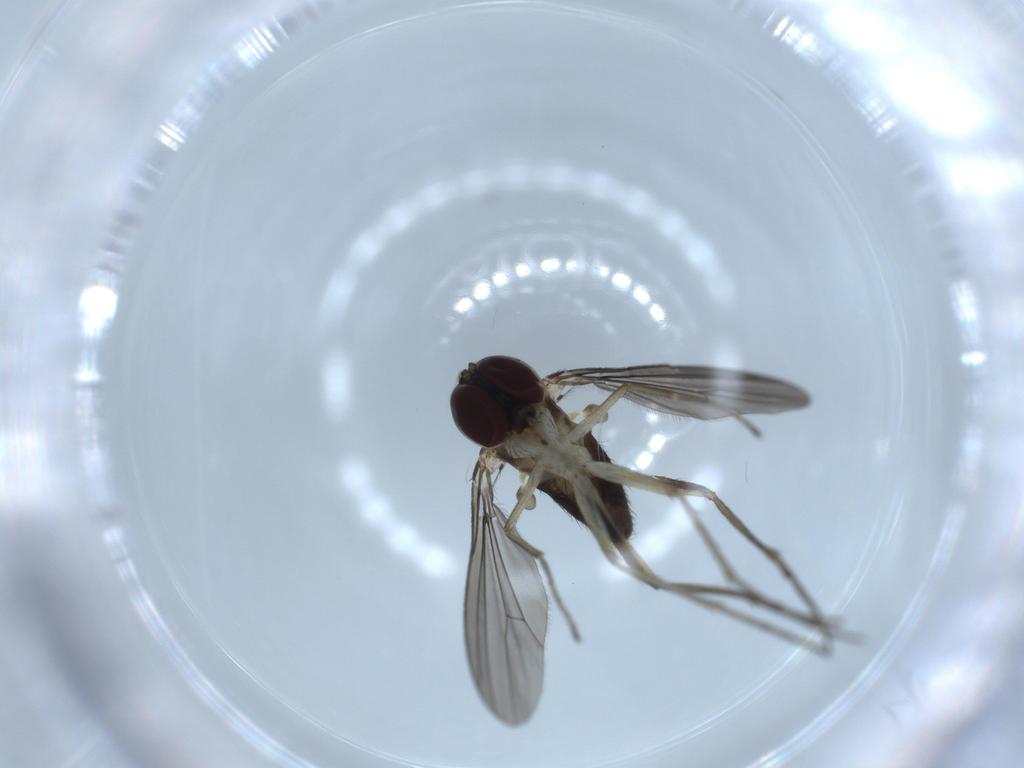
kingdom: Animalia
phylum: Arthropoda
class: Insecta
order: Diptera
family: Dolichopodidae
